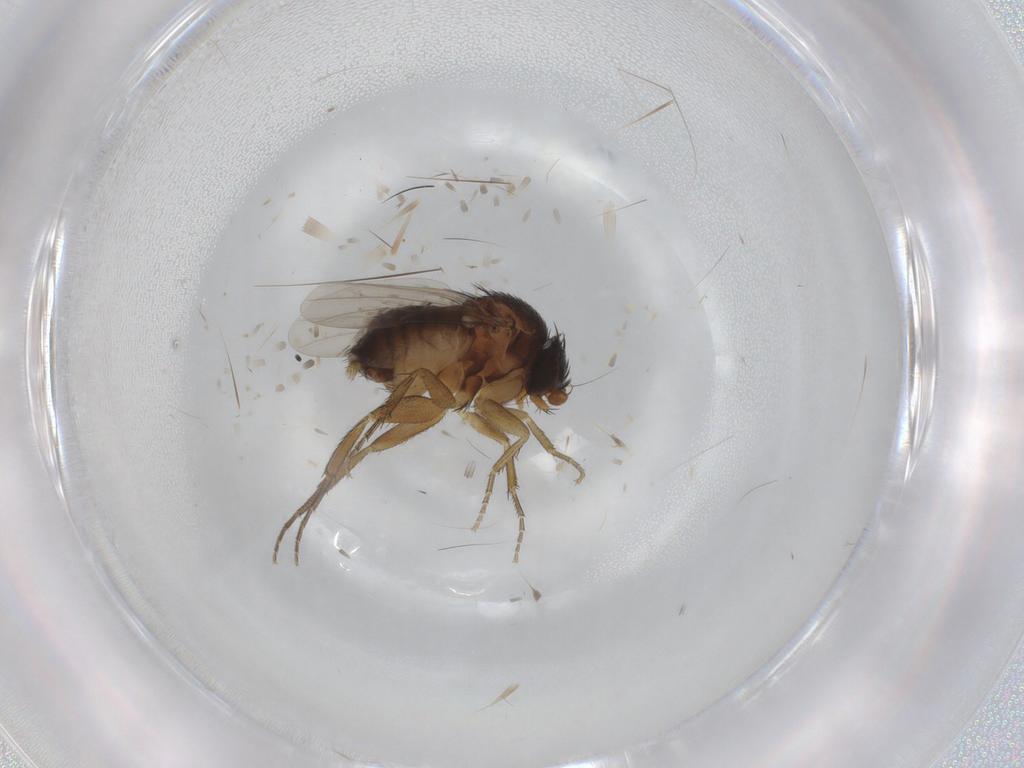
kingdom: Animalia
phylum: Arthropoda
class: Insecta
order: Diptera
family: Phoridae
